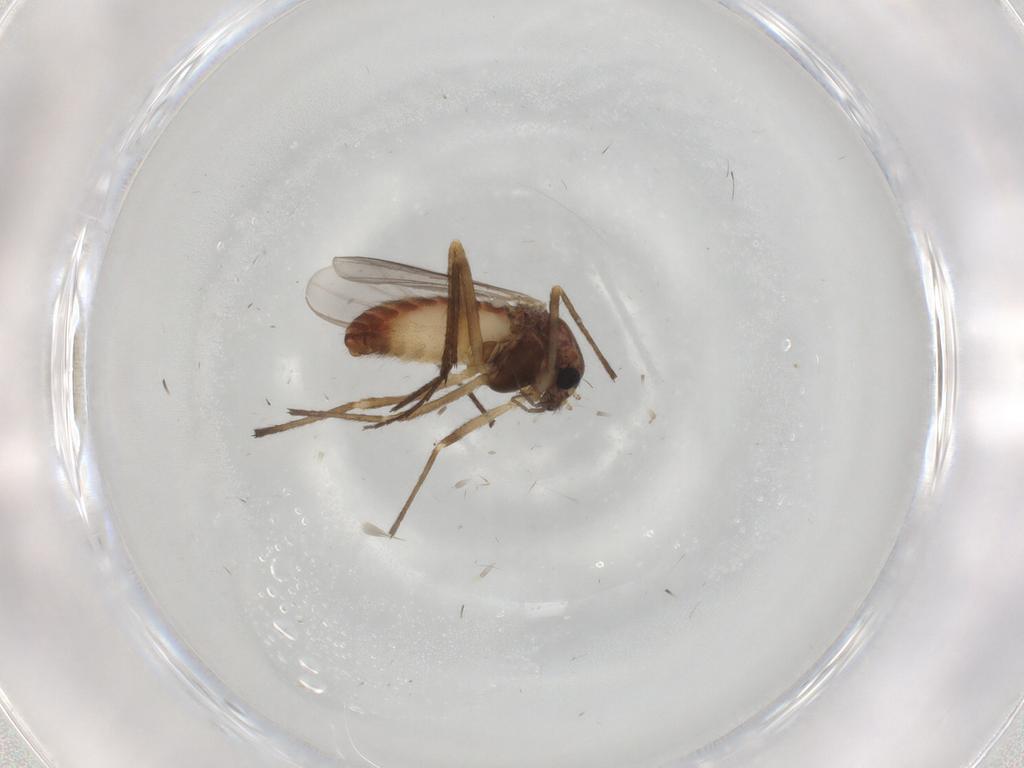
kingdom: Animalia
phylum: Arthropoda
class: Insecta
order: Diptera
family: Chironomidae
